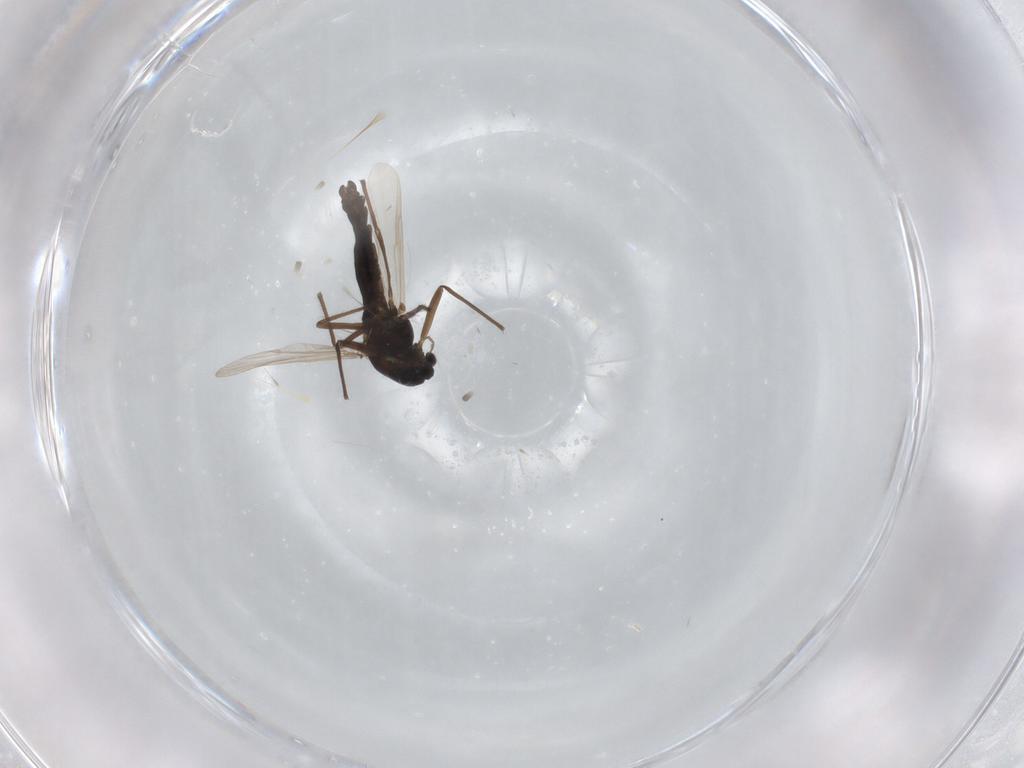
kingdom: Animalia
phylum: Arthropoda
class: Insecta
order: Diptera
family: Chironomidae
